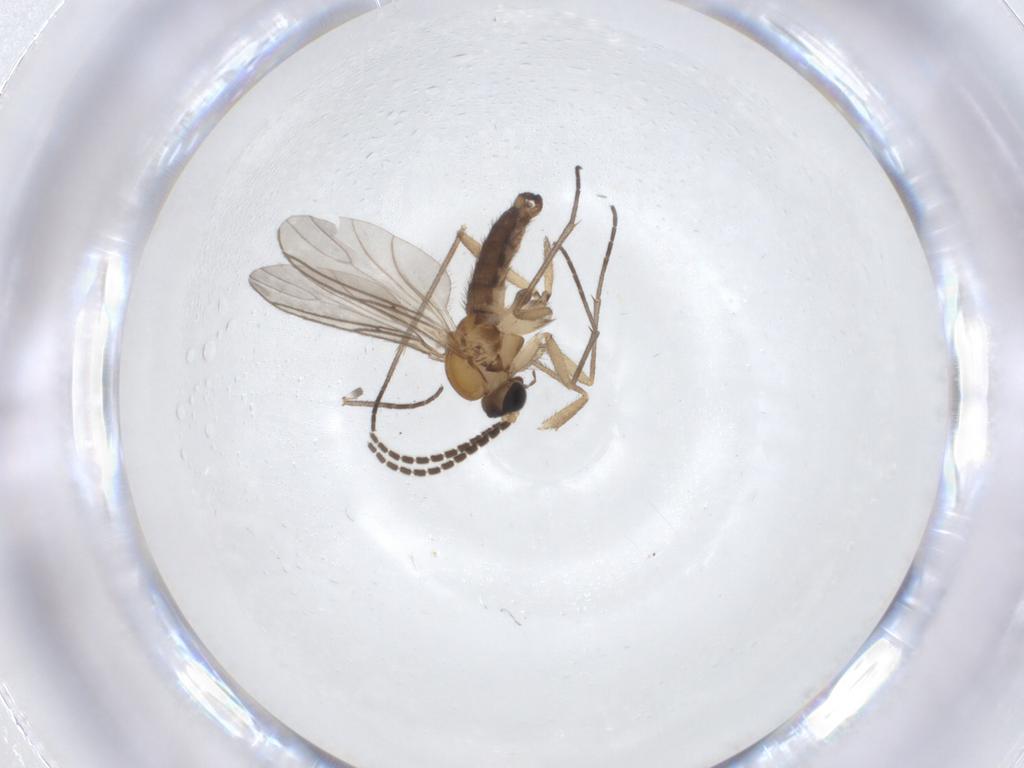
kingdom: Animalia
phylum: Arthropoda
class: Insecta
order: Diptera
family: Sciaridae
